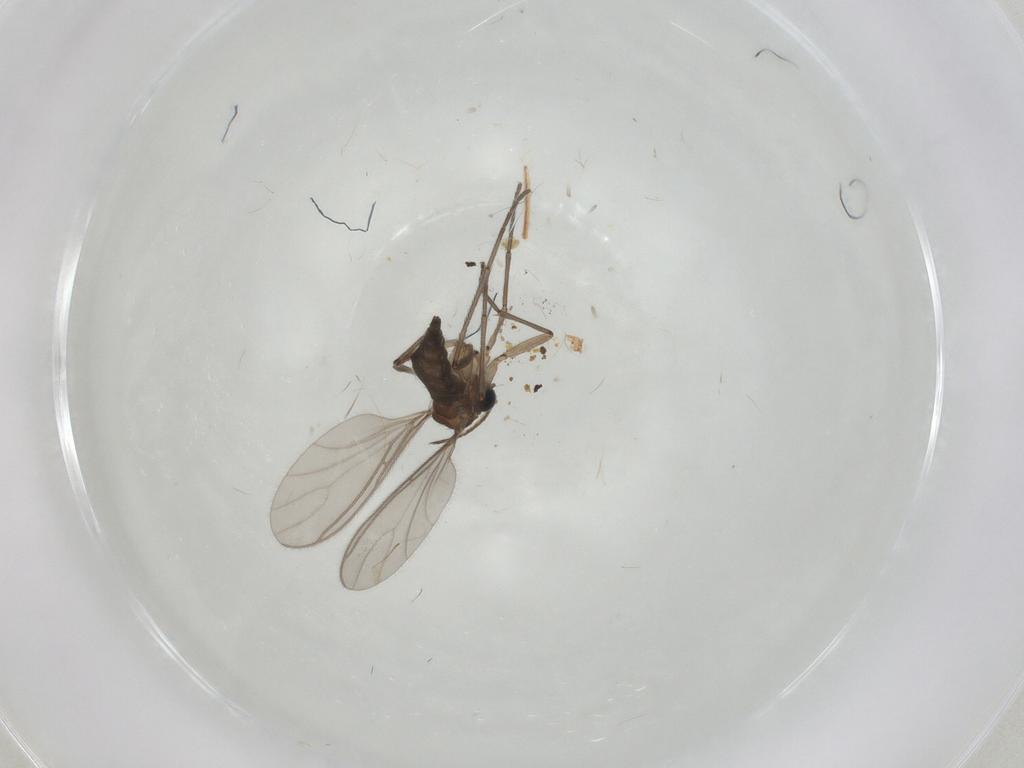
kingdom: Animalia
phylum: Arthropoda
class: Insecta
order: Diptera
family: Sciaridae
